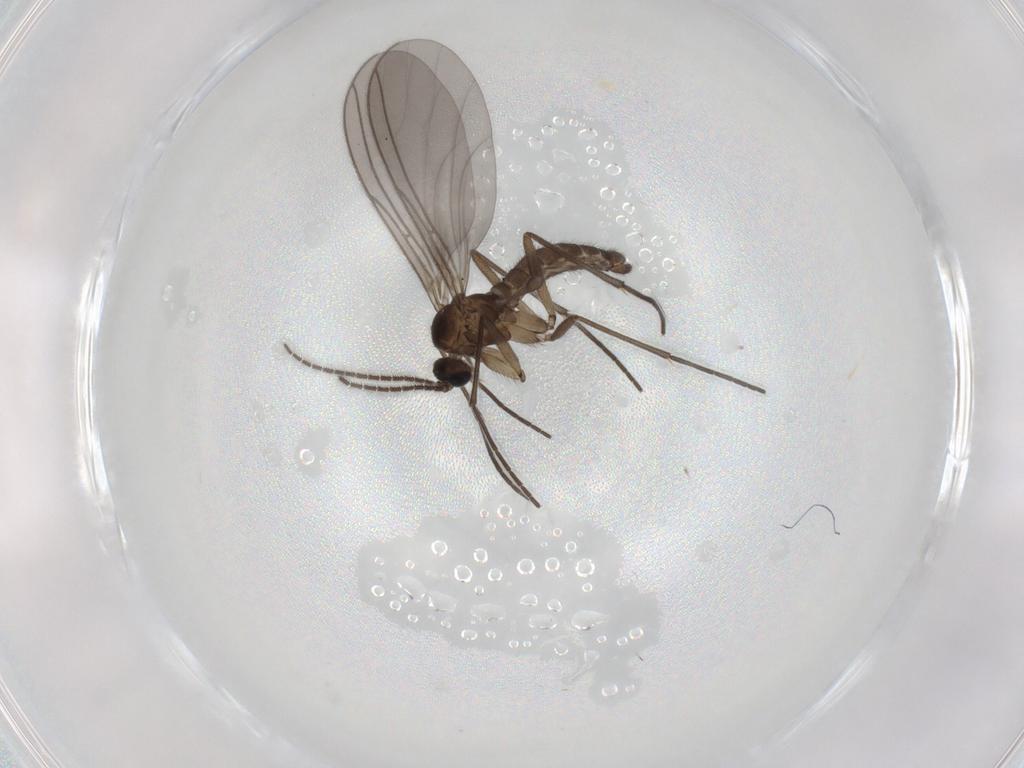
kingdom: Animalia
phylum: Arthropoda
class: Insecta
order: Diptera
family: Sciaridae
